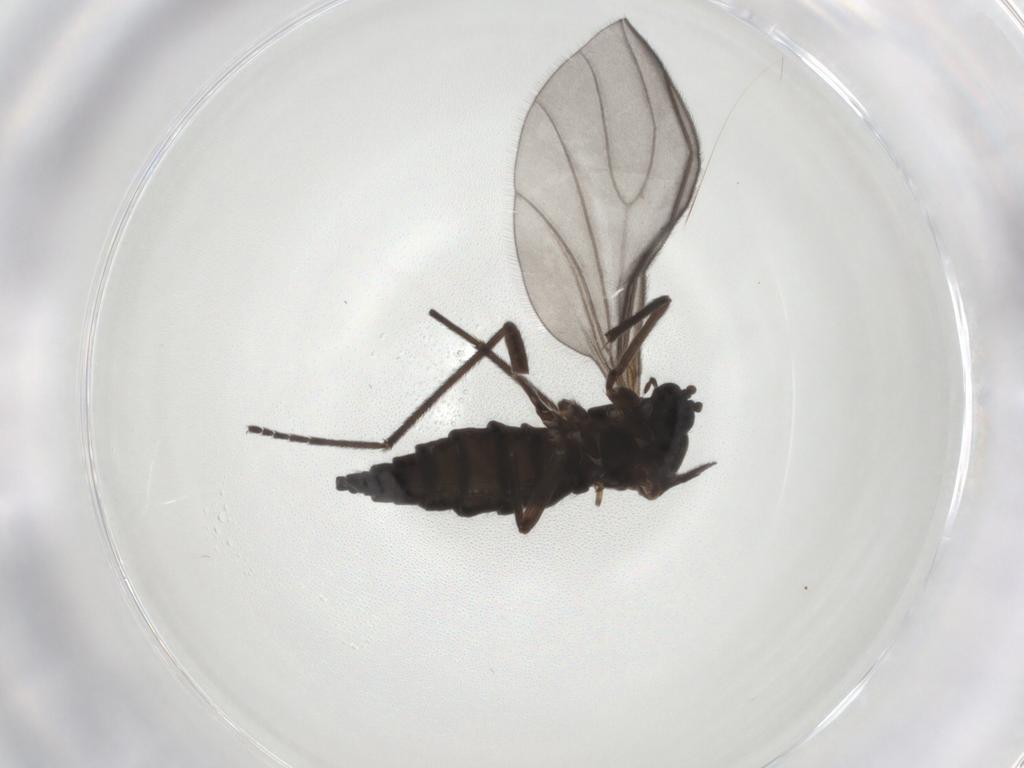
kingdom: Animalia
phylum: Arthropoda
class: Insecta
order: Diptera
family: Sciaridae
